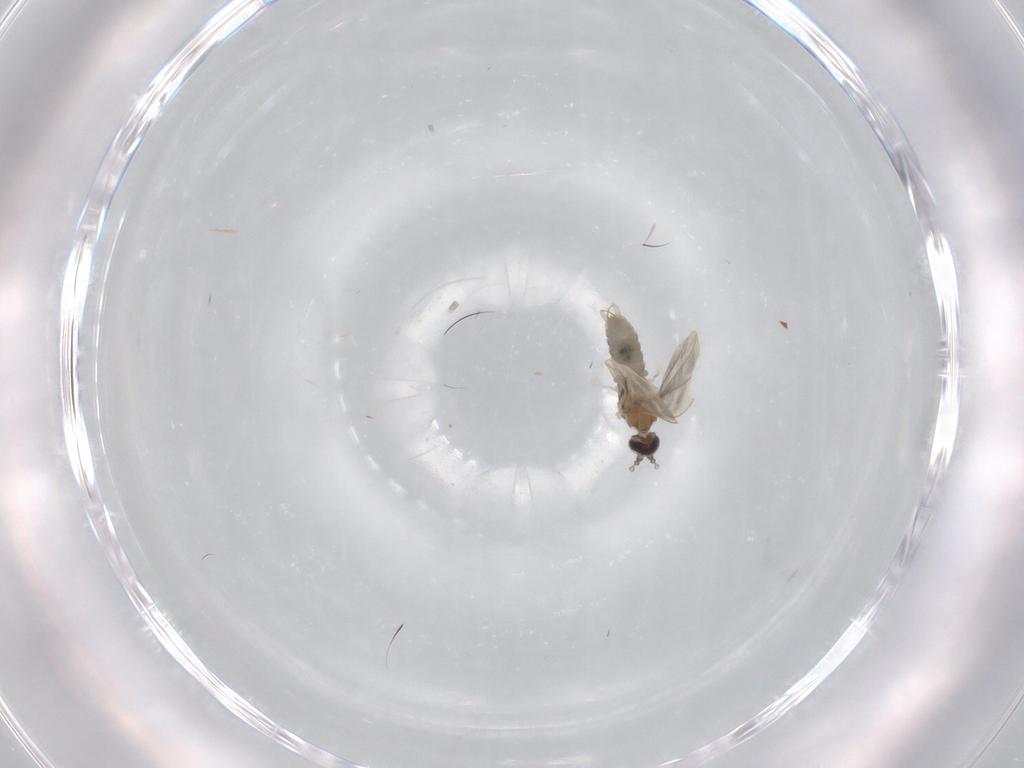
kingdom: Animalia
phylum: Arthropoda
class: Insecta
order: Diptera
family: Cecidomyiidae
